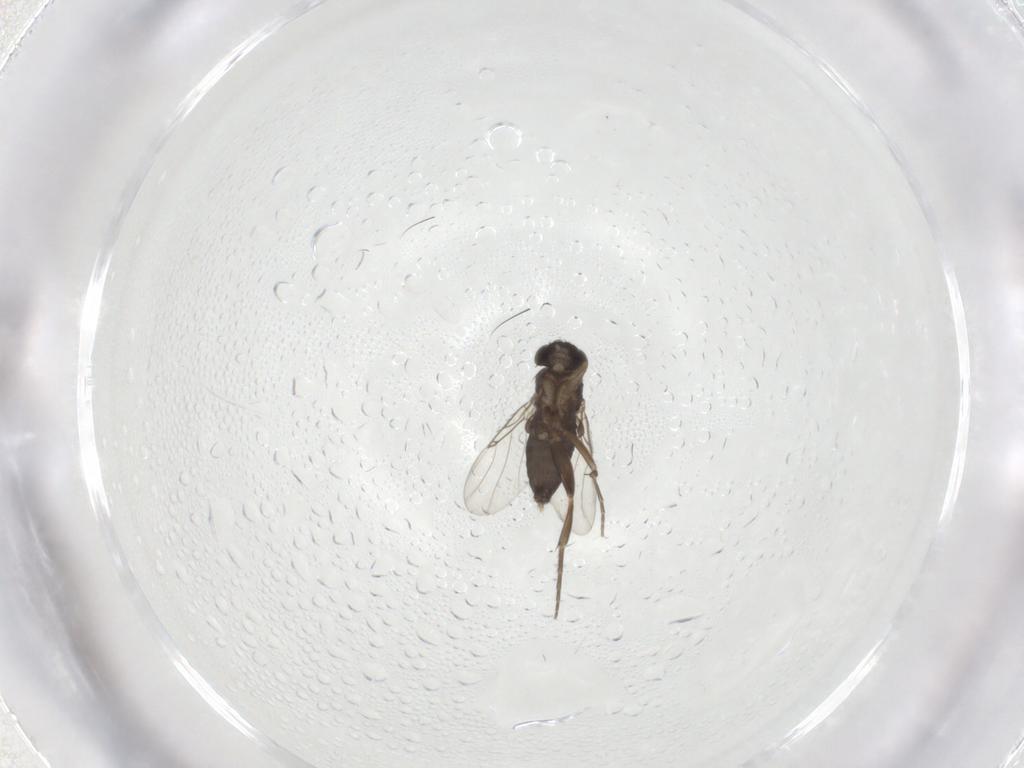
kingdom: Animalia
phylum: Arthropoda
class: Insecta
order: Diptera
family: Phoridae
